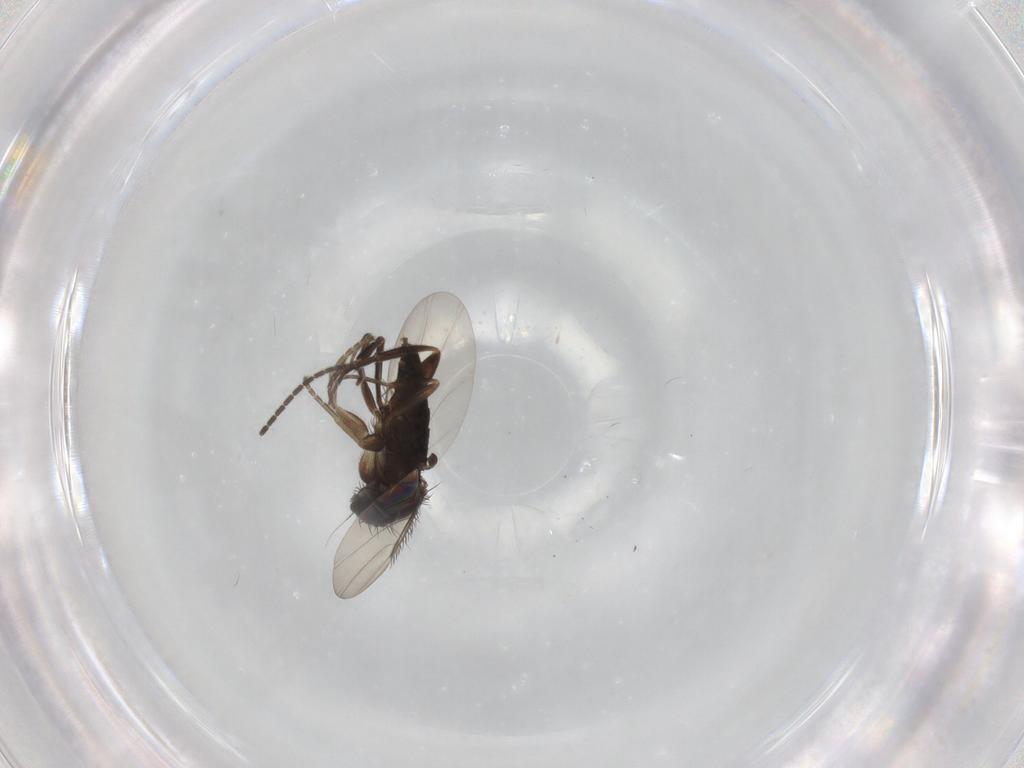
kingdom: Animalia
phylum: Arthropoda
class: Insecta
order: Diptera
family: Phoridae
